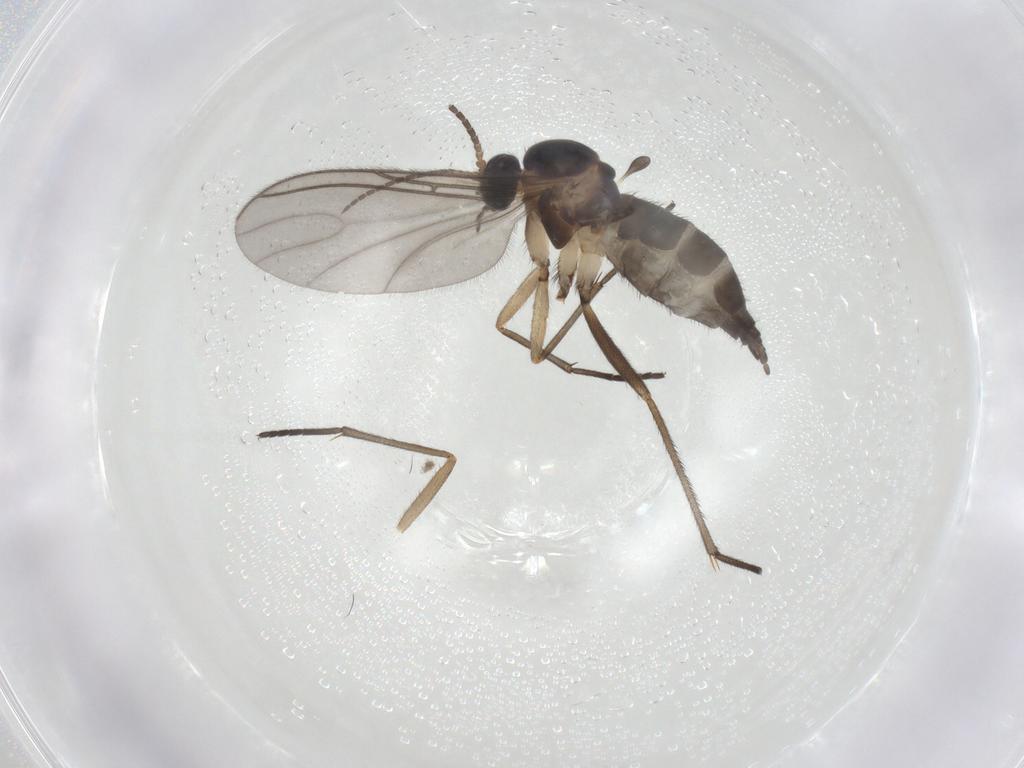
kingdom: Animalia
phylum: Arthropoda
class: Insecta
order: Diptera
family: Sciaridae
